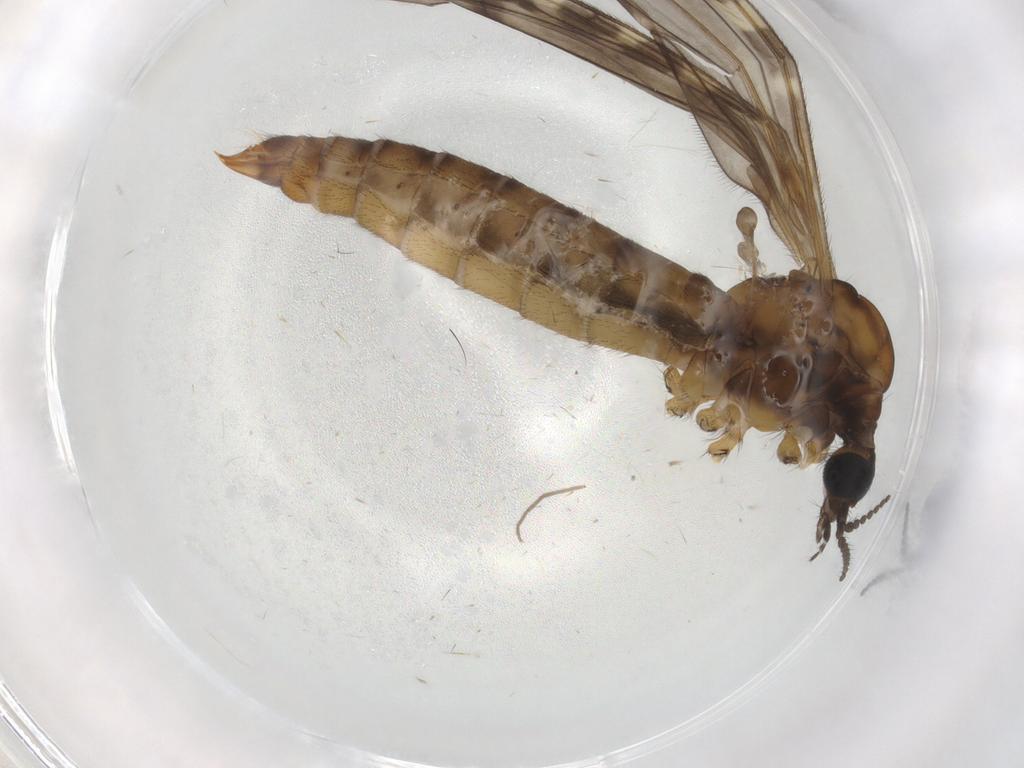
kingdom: Animalia
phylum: Arthropoda
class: Insecta
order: Diptera
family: Limoniidae
